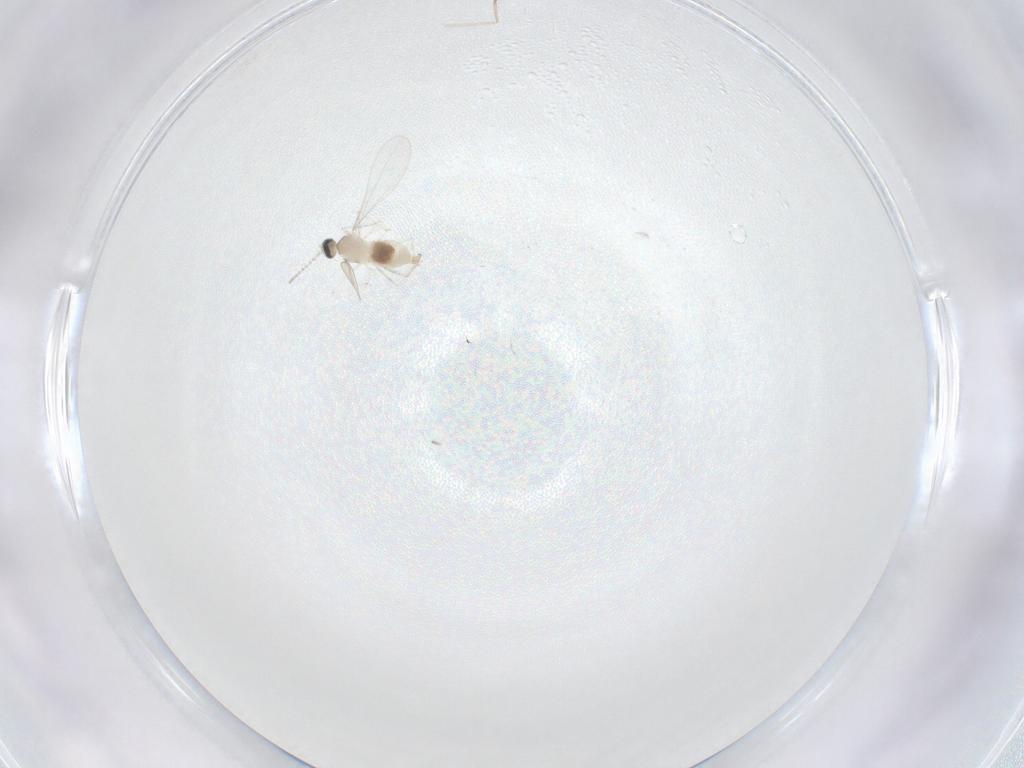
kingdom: Animalia
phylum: Arthropoda
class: Insecta
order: Diptera
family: Cecidomyiidae
